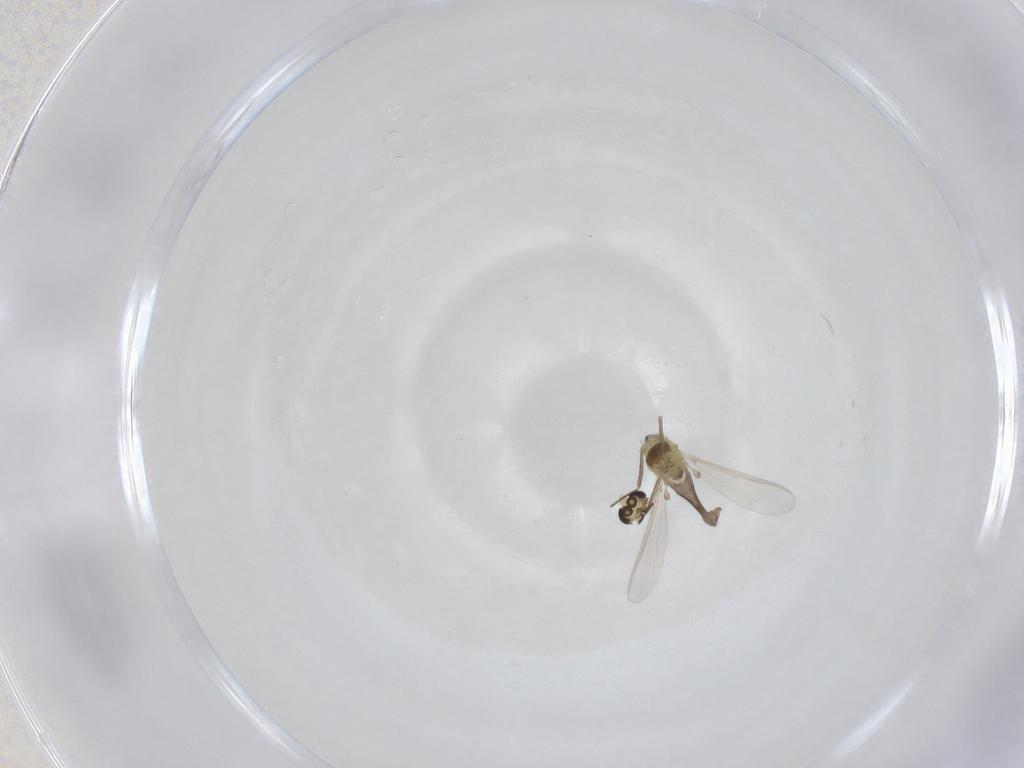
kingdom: Animalia
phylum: Arthropoda
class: Insecta
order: Diptera
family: Chironomidae
